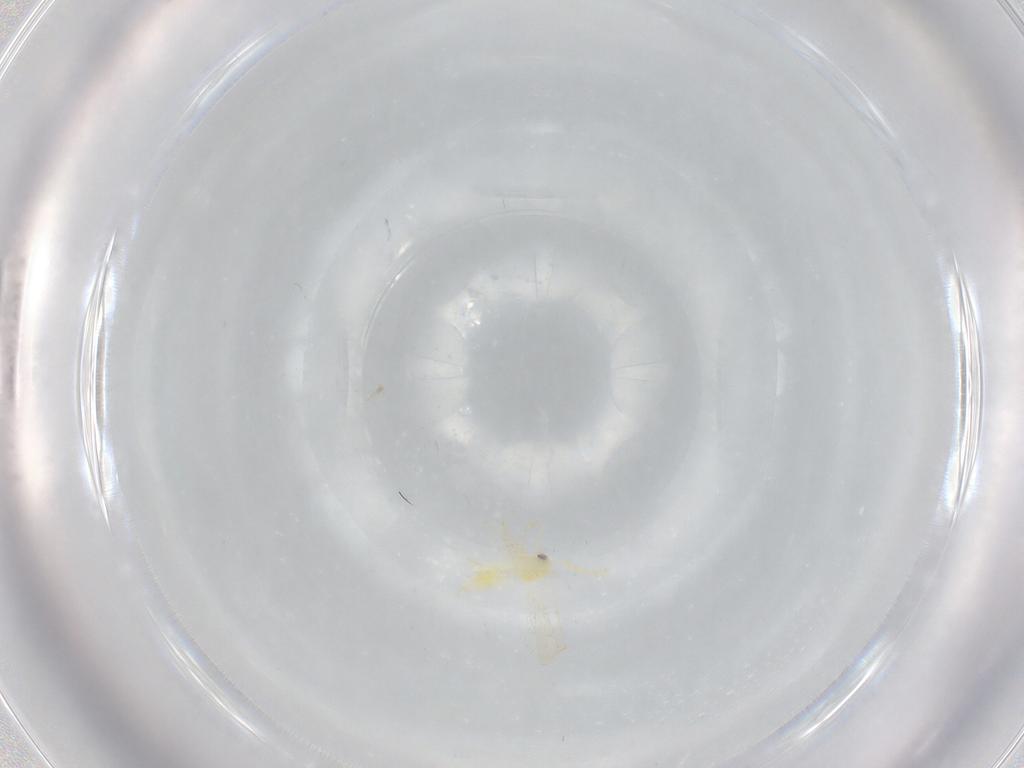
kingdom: Animalia
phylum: Arthropoda
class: Insecta
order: Hemiptera
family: Aleyrodidae
